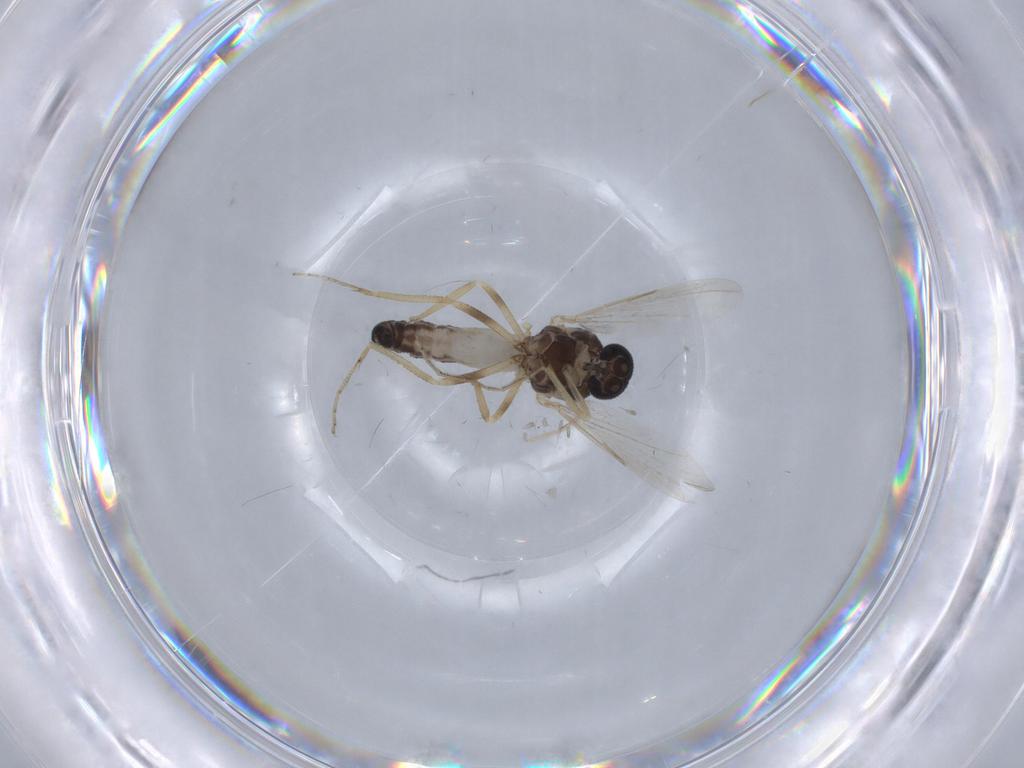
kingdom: Animalia
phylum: Arthropoda
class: Insecta
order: Diptera
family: Ceratopogonidae
